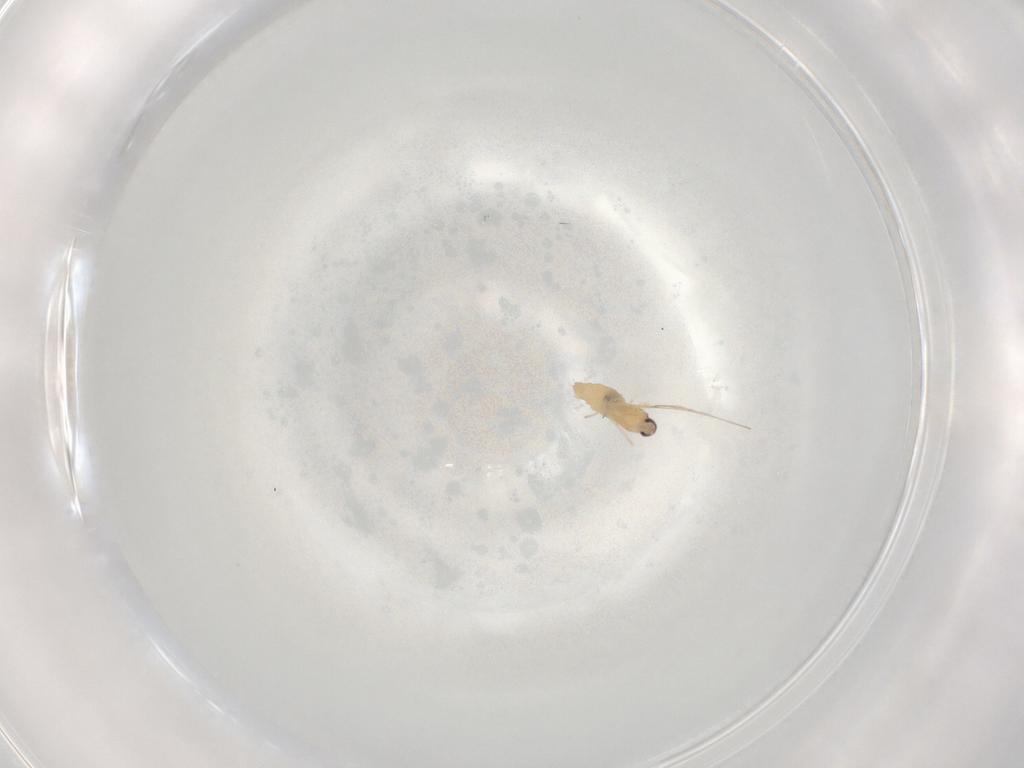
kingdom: Animalia
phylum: Arthropoda
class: Insecta
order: Diptera
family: Cecidomyiidae
